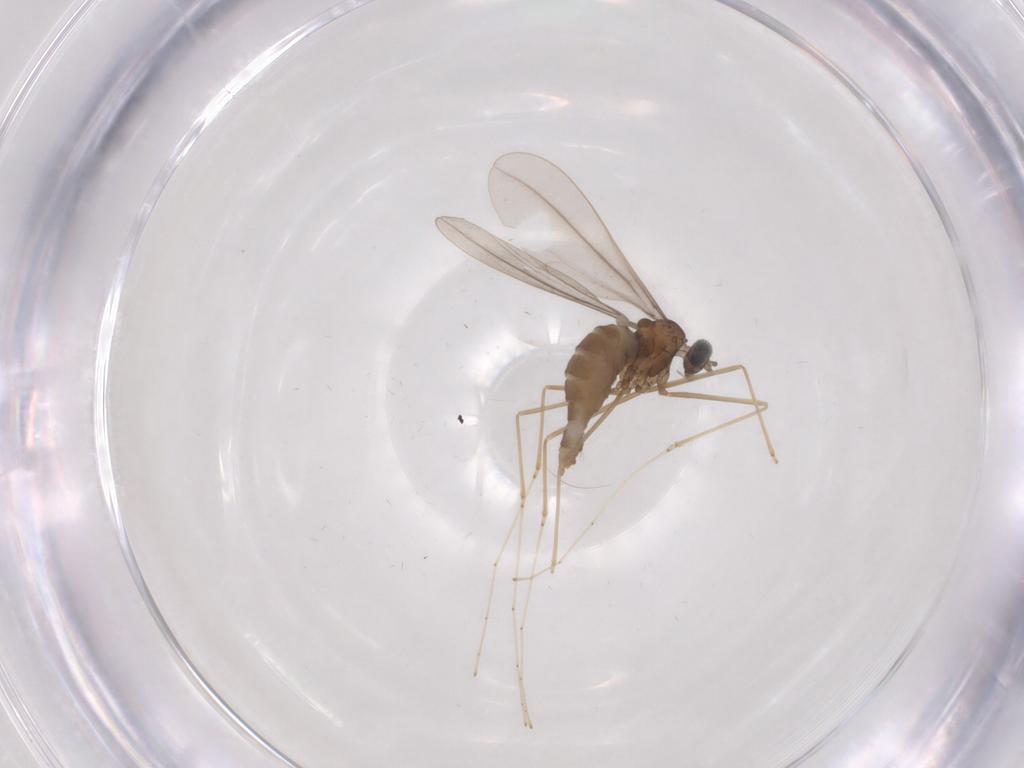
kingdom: Animalia
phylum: Arthropoda
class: Insecta
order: Diptera
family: Cecidomyiidae
